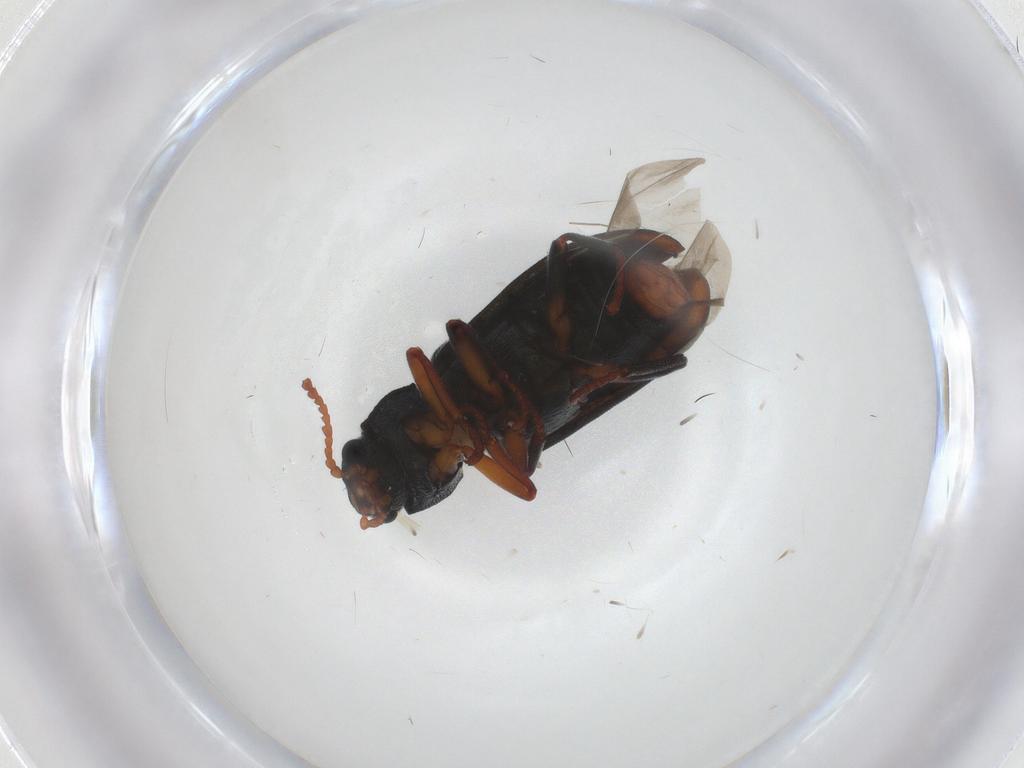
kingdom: Animalia
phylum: Arthropoda
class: Insecta
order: Coleoptera
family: Melyridae
